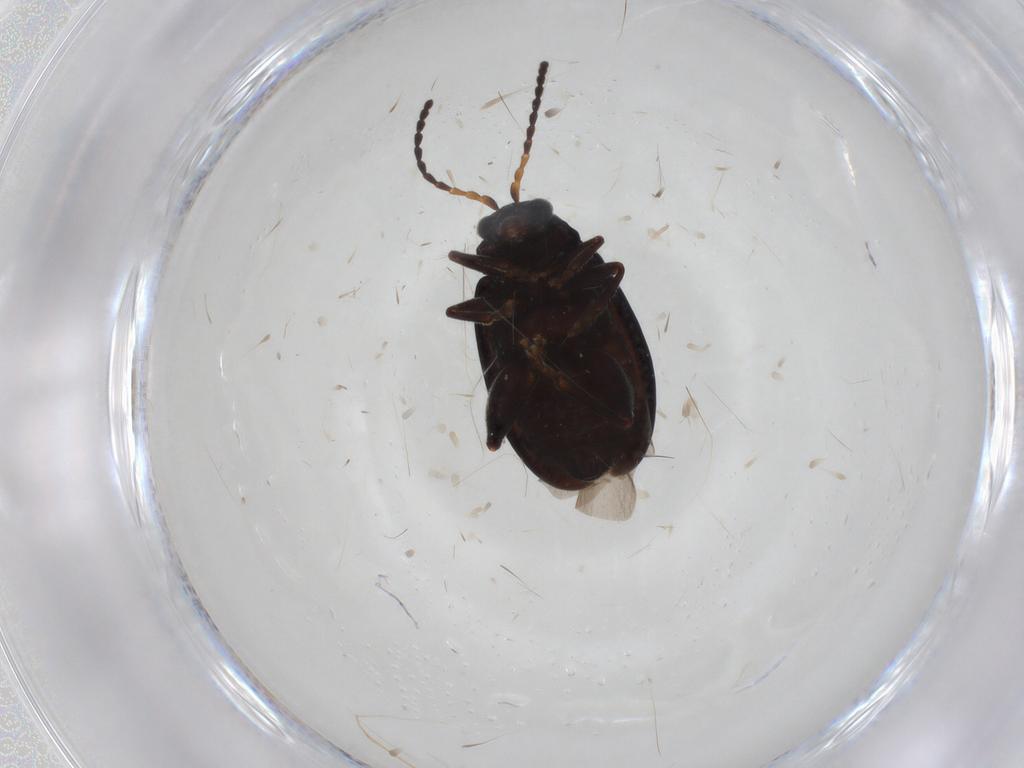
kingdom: Animalia
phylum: Arthropoda
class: Insecta
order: Coleoptera
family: Chrysomelidae
